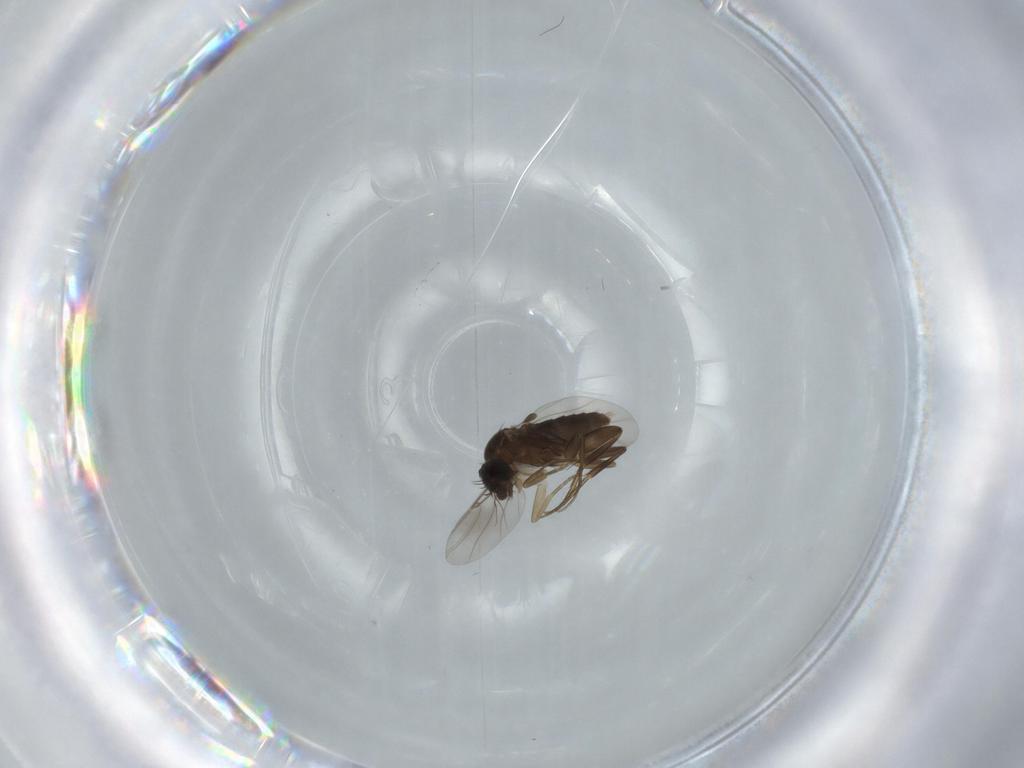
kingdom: Animalia
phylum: Arthropoda
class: Insecta
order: Diptera
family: Phoridae
